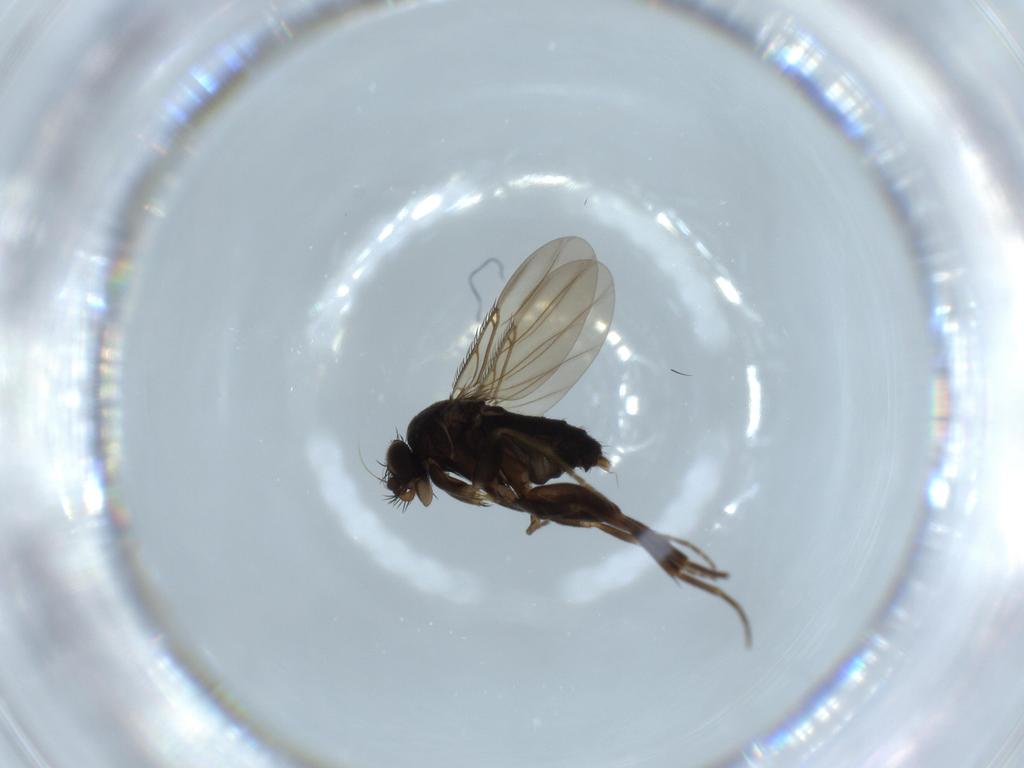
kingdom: Animalia
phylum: Arthropoda
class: Insecta
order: Diptera
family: Phoridae
